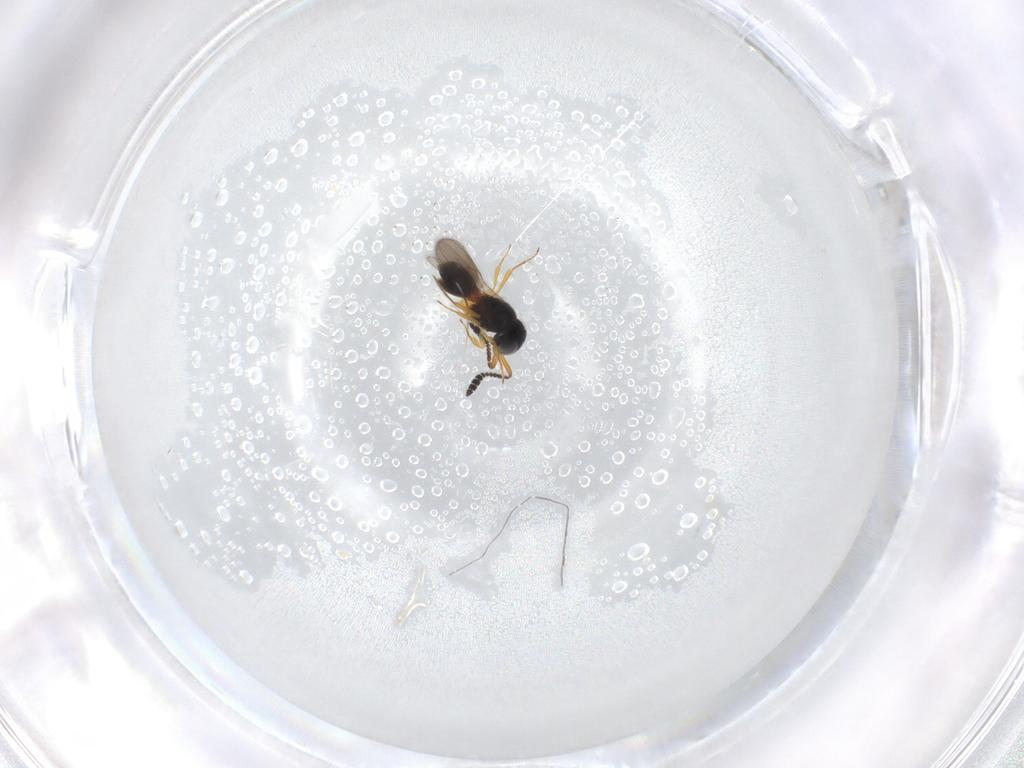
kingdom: Animalia
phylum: Arthropoda
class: Insecta
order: Hymenoptera
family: Scelionidae
